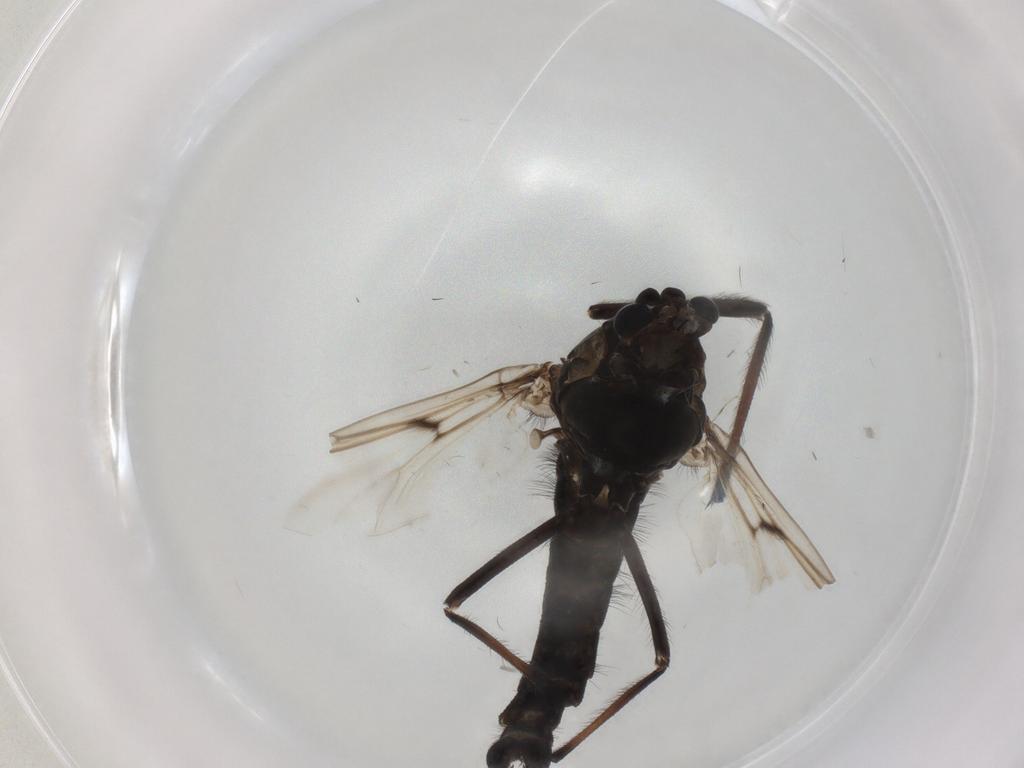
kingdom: Animalia
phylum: Arthropoda
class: Insecta
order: Diptera
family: Chironomidae
